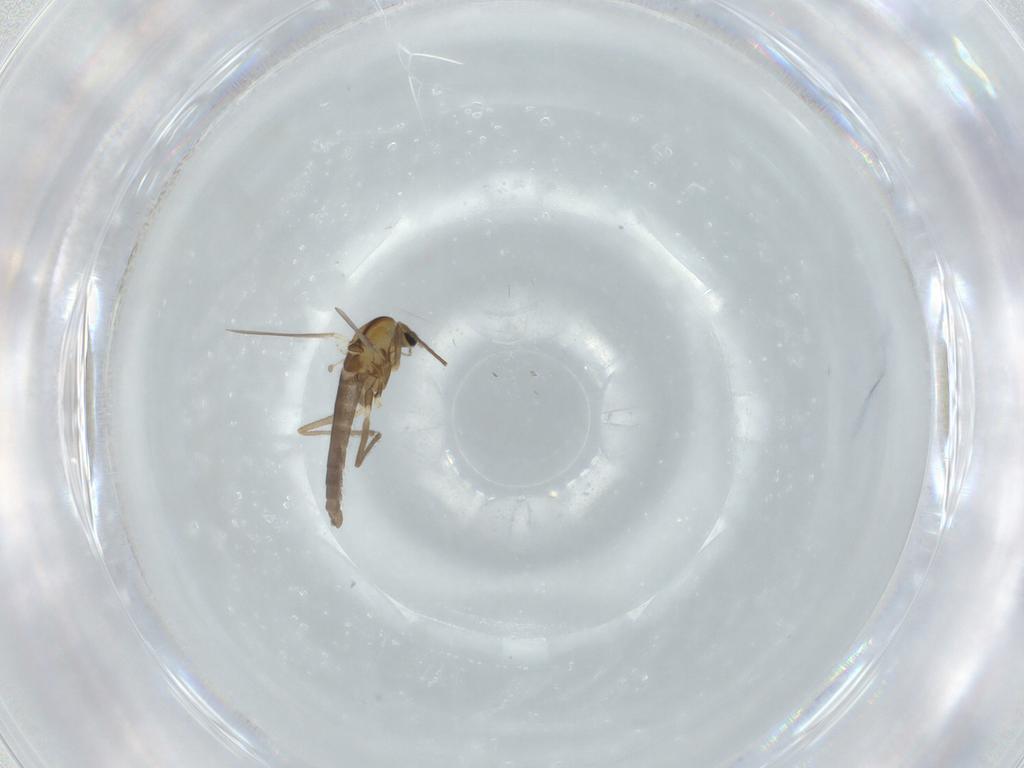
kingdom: Animalia
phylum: Arthropoda
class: Insecta
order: Diptera
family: Chironomidae
